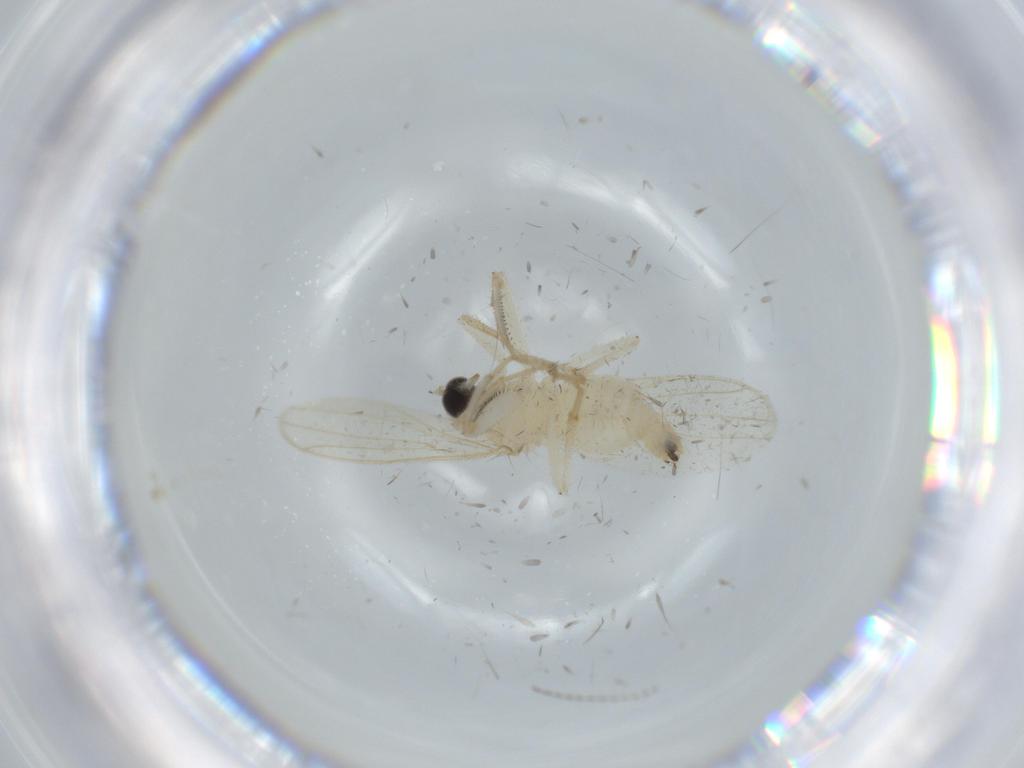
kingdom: Animalia
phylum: Arthropoda
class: Insecta
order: Diptera
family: Hybotidae
